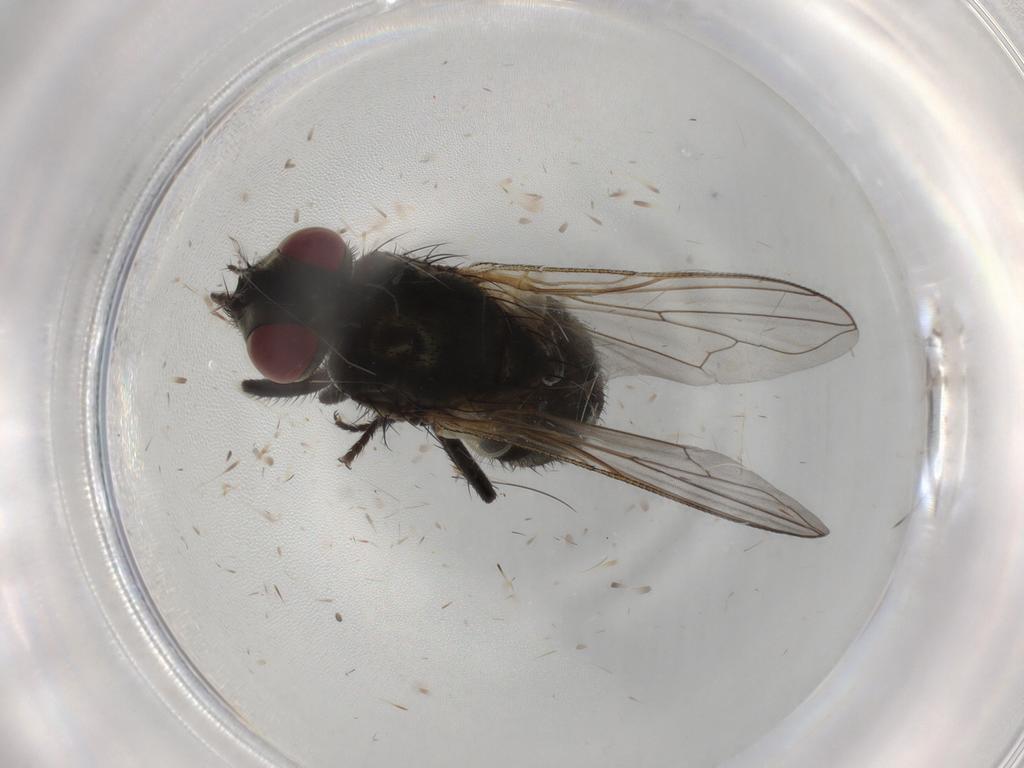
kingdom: Animalia
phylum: Arthropoda
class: Insecta
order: Diptera
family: Muscidae
